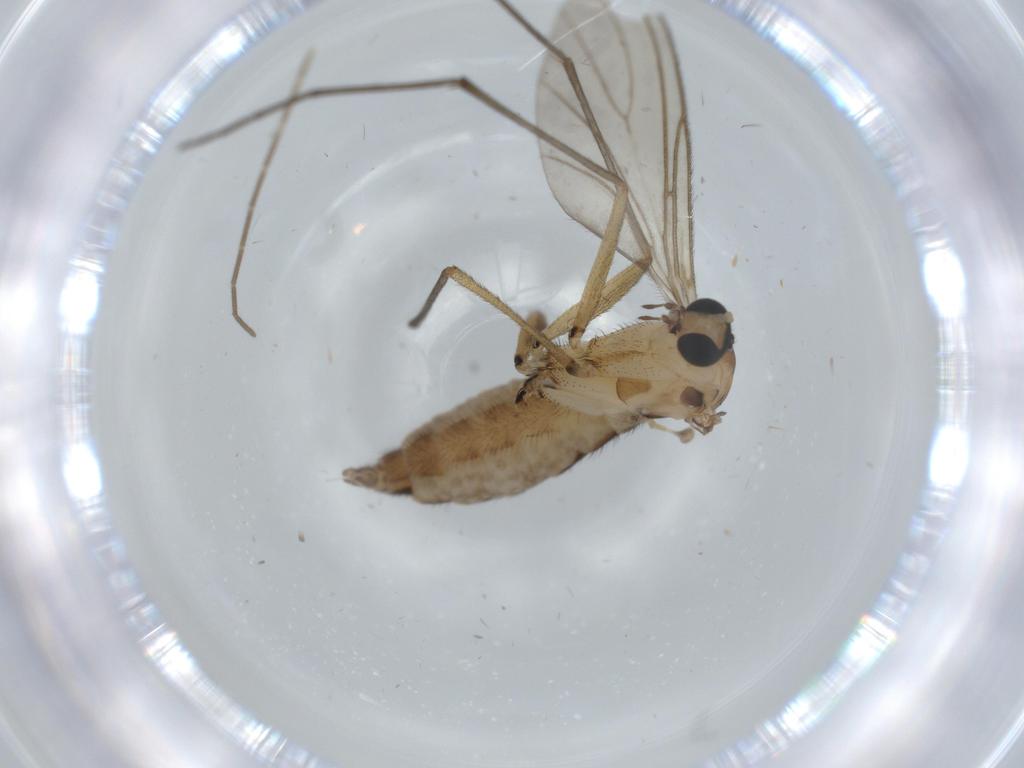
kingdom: Animalia
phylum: Arthropoda
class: Insecta
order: Diptera
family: Sciaridae
